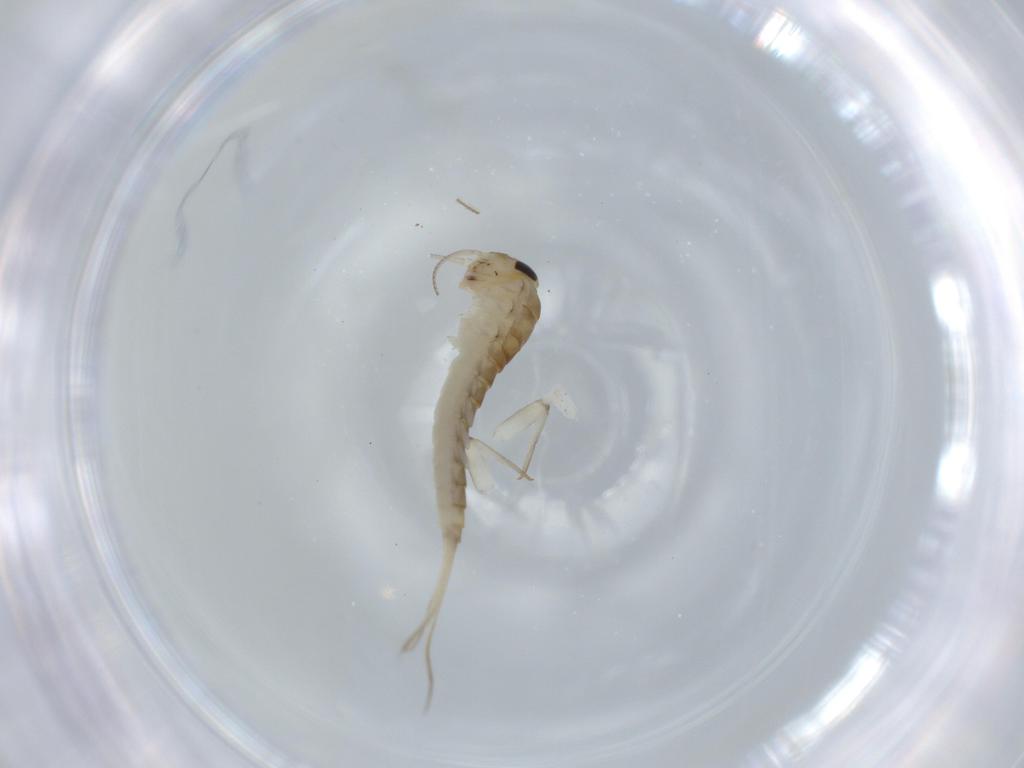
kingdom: Animalia
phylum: Arthropoda
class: Insecta
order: Ephemeroptera
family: Baetidae
